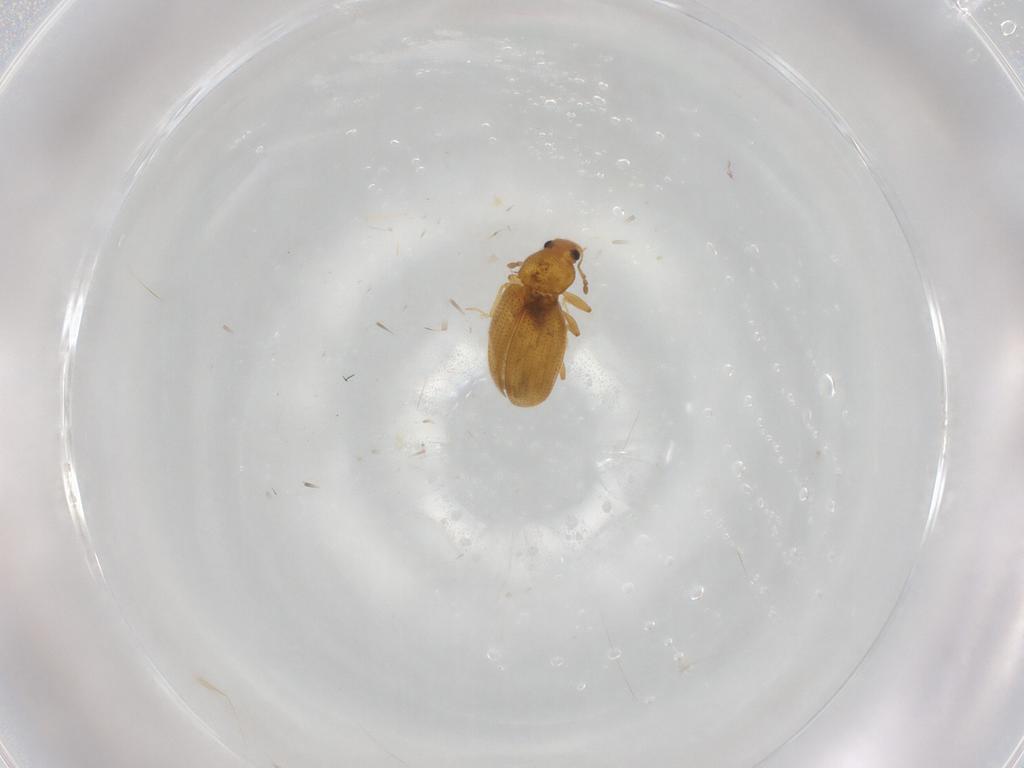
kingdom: Animalia
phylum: Arthropoda
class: Insecta
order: Coleoptera
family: Latridiidae
